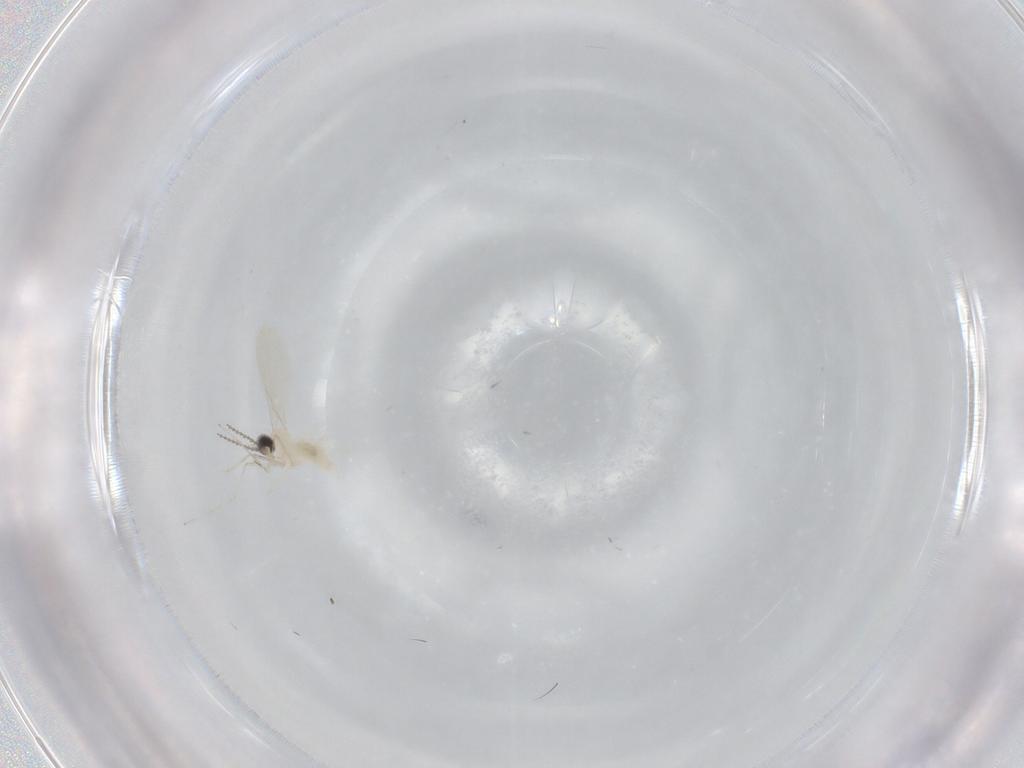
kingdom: Animalia
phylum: Arthropoda
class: Insecta
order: Diptera
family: Cecidomyiidae
